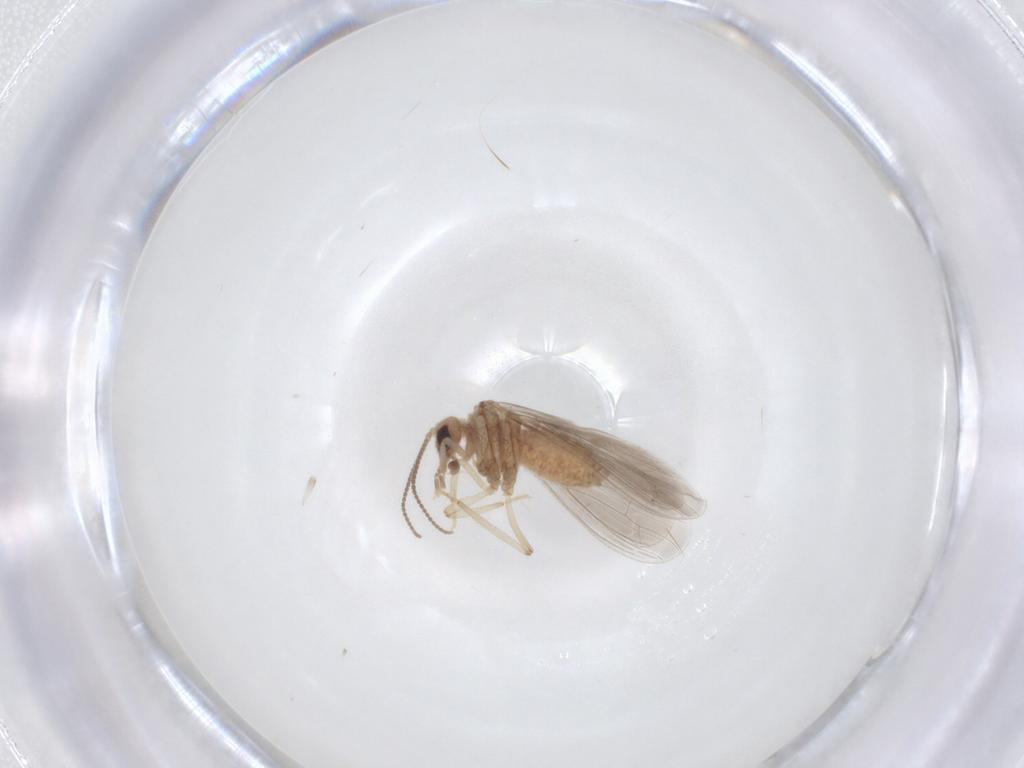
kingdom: Animalia
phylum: Arthropoda
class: Insecta
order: Neuroptera
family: Coniopterygidae
